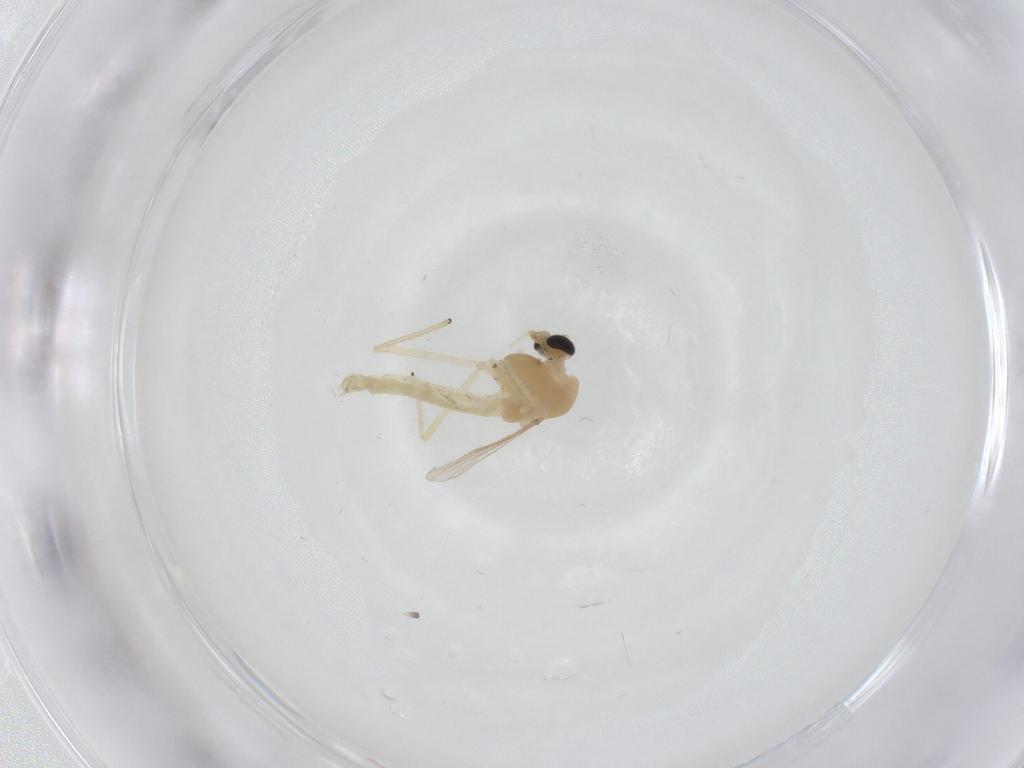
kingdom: Animalia
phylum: Arthropoda
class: Insecta
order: Diptera
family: Chironomidae
